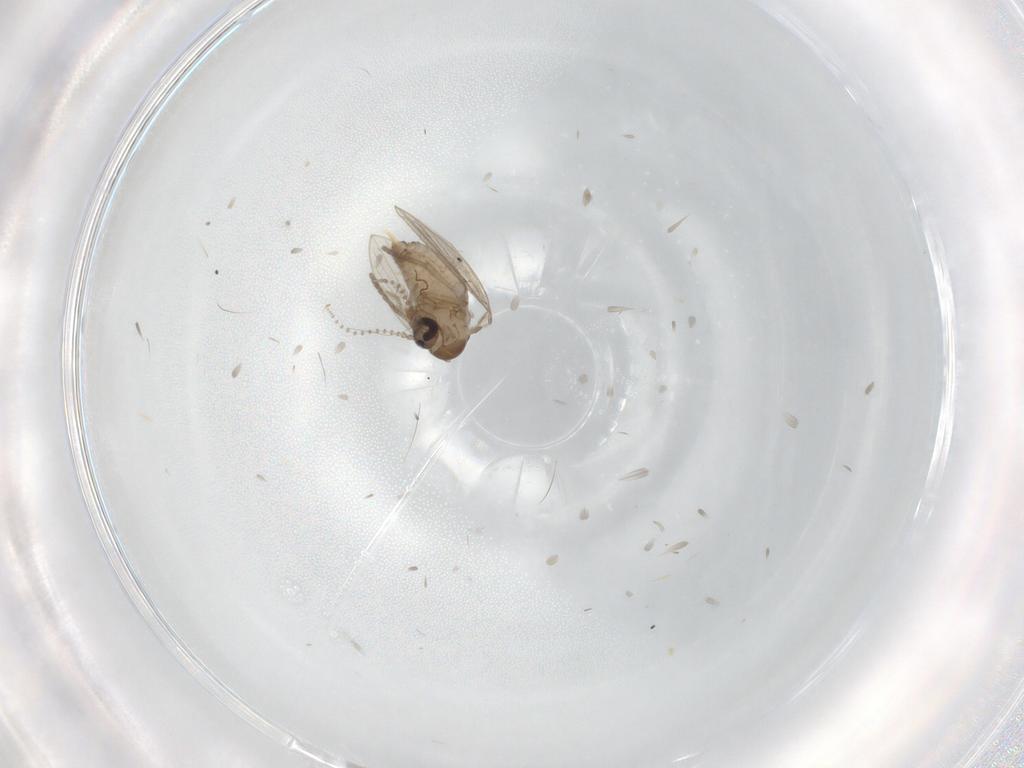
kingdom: Animalia
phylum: Arthropoda
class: Insecta
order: Diptera
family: Psychodidae
